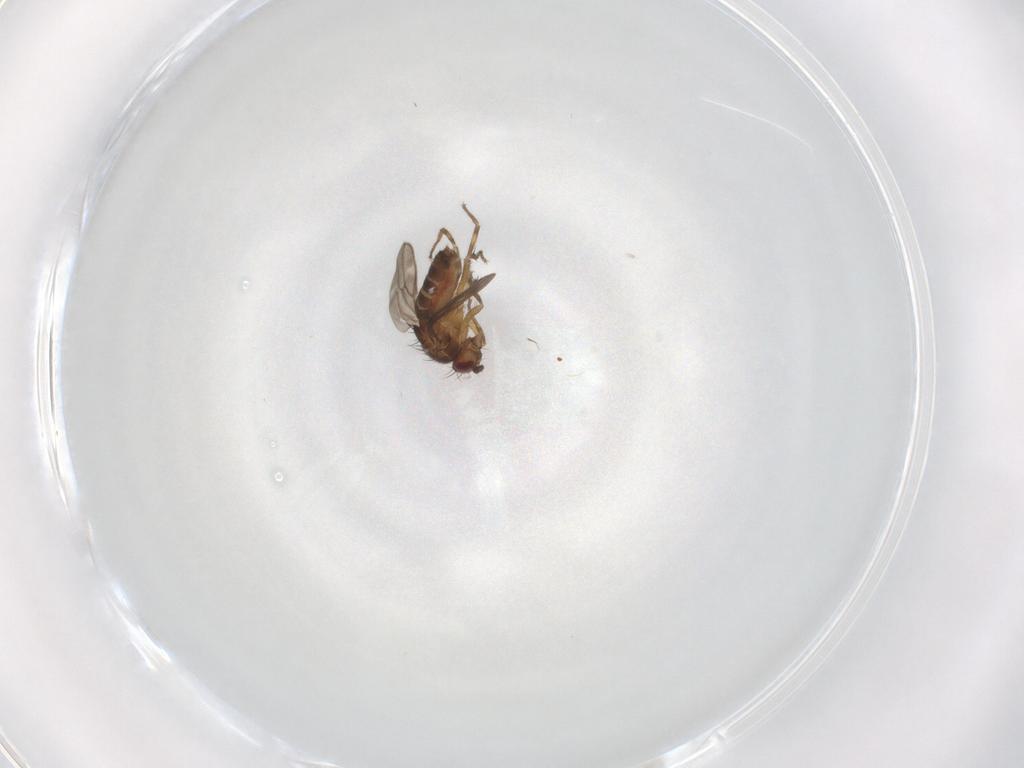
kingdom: Animalia
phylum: Arthropoda
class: Insecta
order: Diptera
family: Sphaeroceridae
